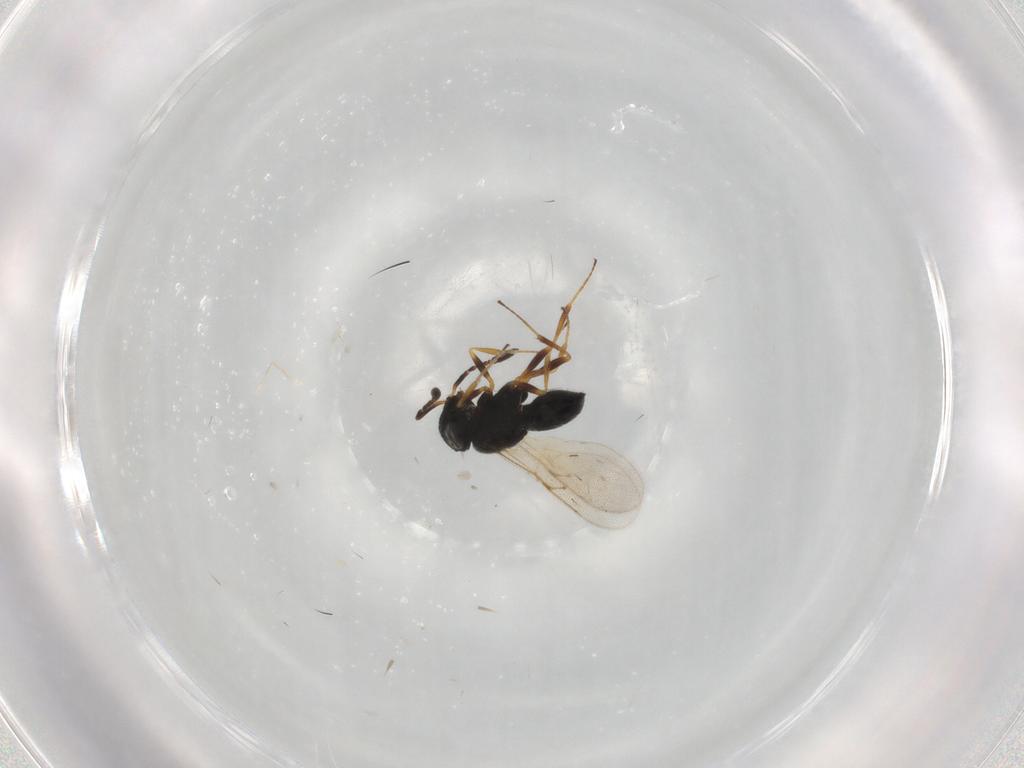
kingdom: Animalia
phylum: Arthropoda
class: Insecta
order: Hymenoptera
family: Scelionidae
